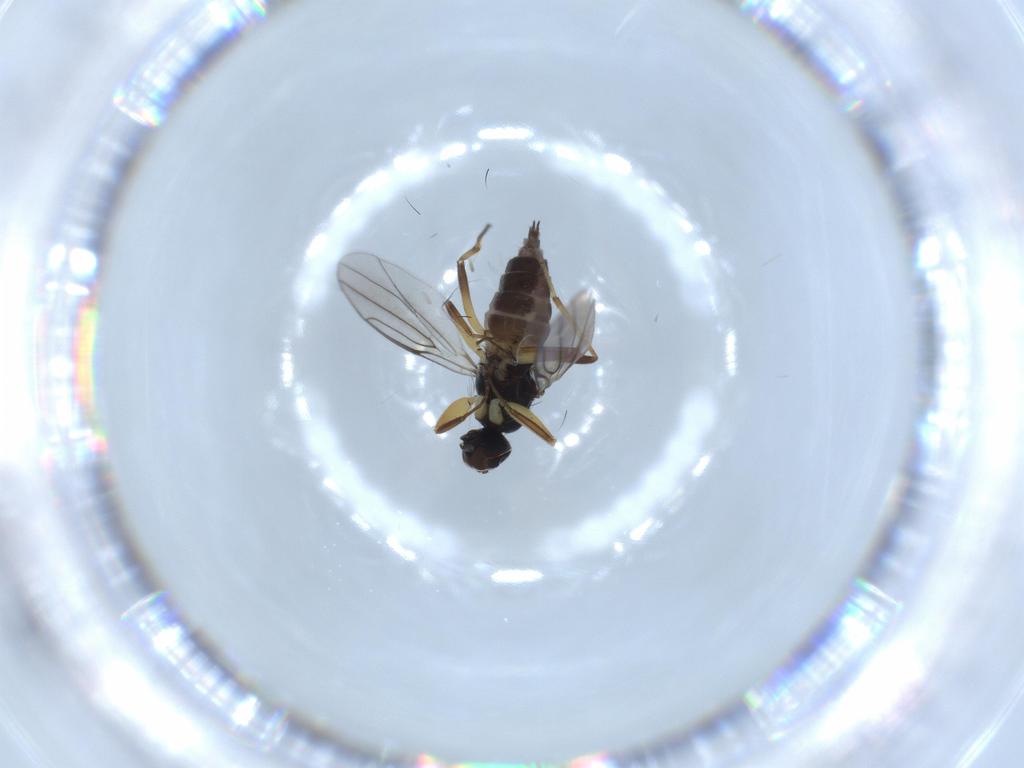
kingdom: Animalia
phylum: Arthropoda
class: Insecta
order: Diptera
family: Hybotidae
